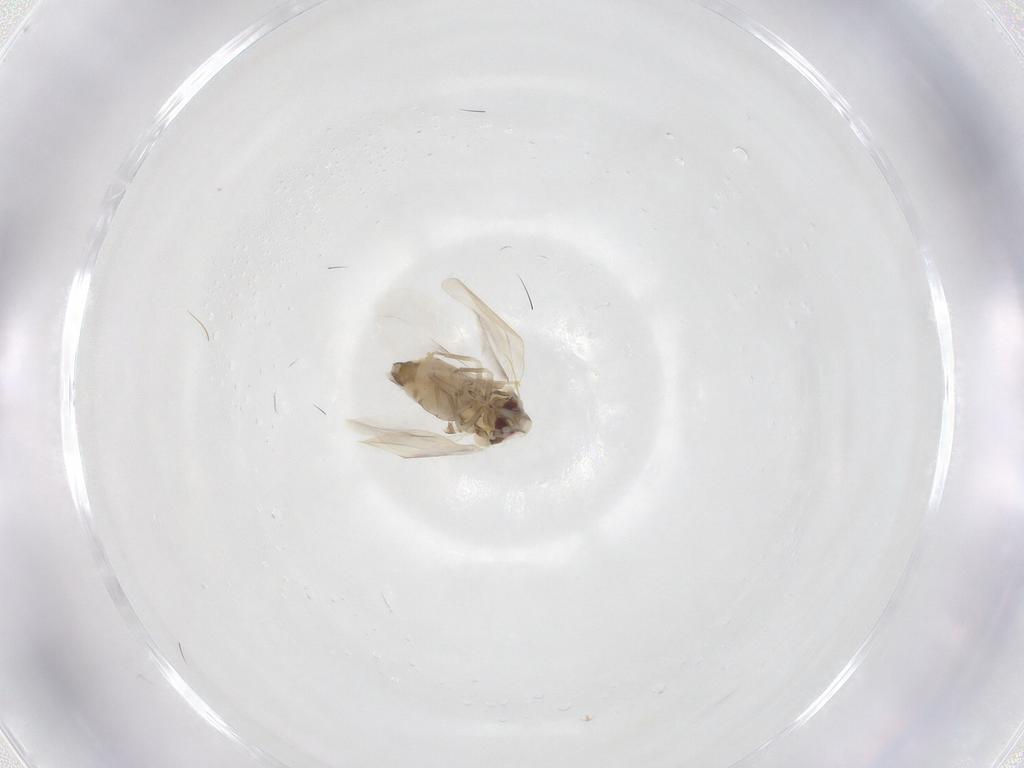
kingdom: Animalia
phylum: Arthropoda
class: Insecta
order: Hemiptera
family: Aleyrodidae
